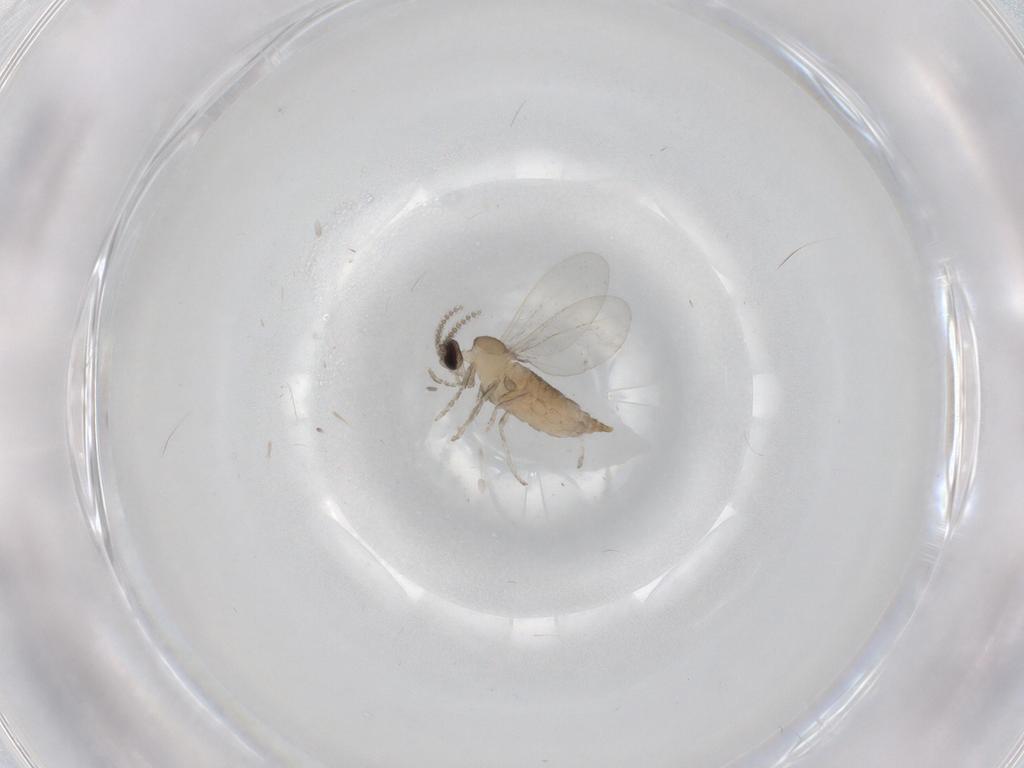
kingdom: Animalia
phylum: Arthropoda
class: Insecta
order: Diptera
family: Cecidomyiidae
